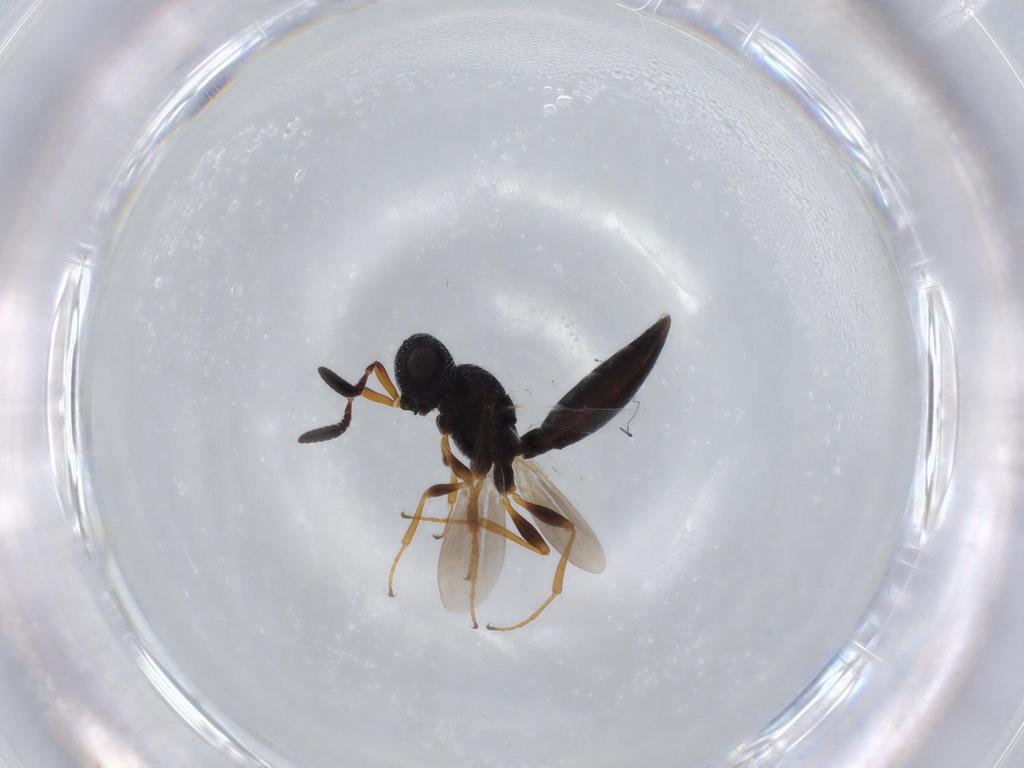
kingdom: Animalia
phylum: Arthropoda
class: Insecta
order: Hymenoptera
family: Scelionidae
